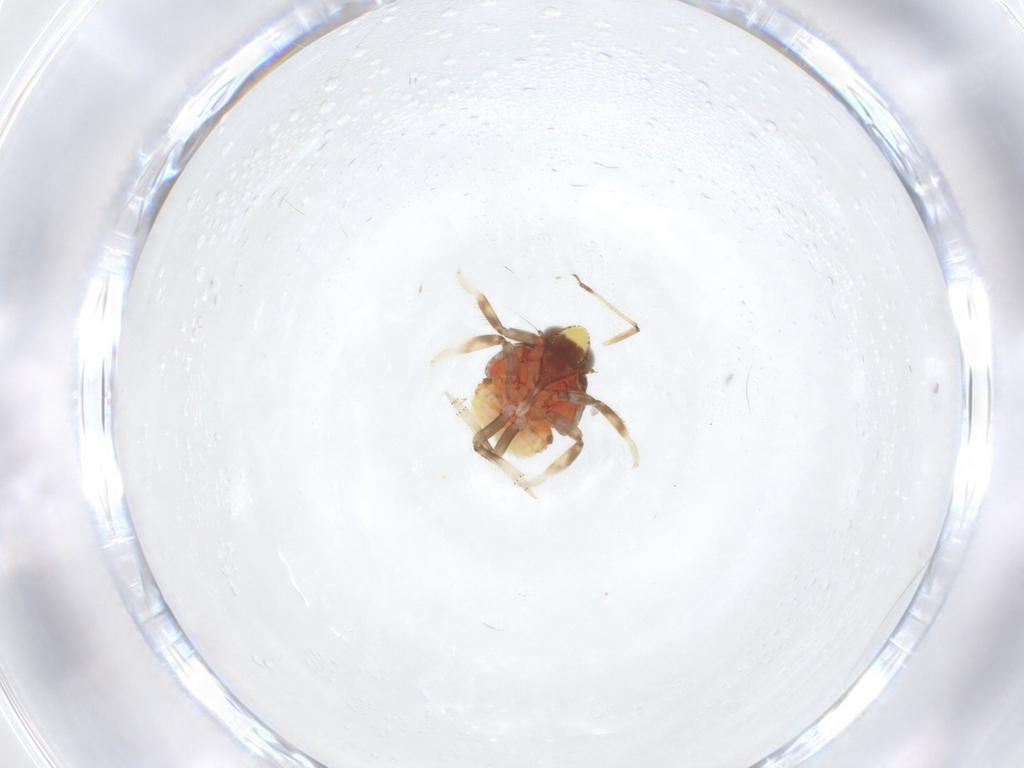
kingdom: Animalia
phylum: Arthropoda
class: Insecta
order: Hemiptera
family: Issidae
